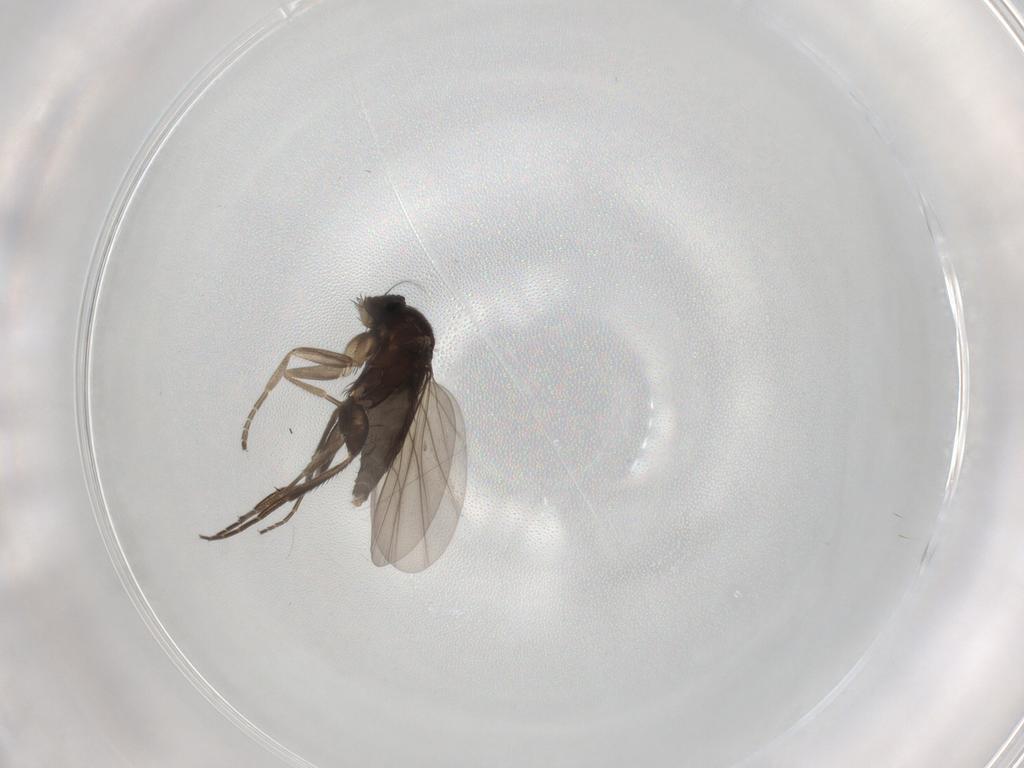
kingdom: Animalia
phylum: Arthropoda
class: Insecta
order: Diptera
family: Phoridae
